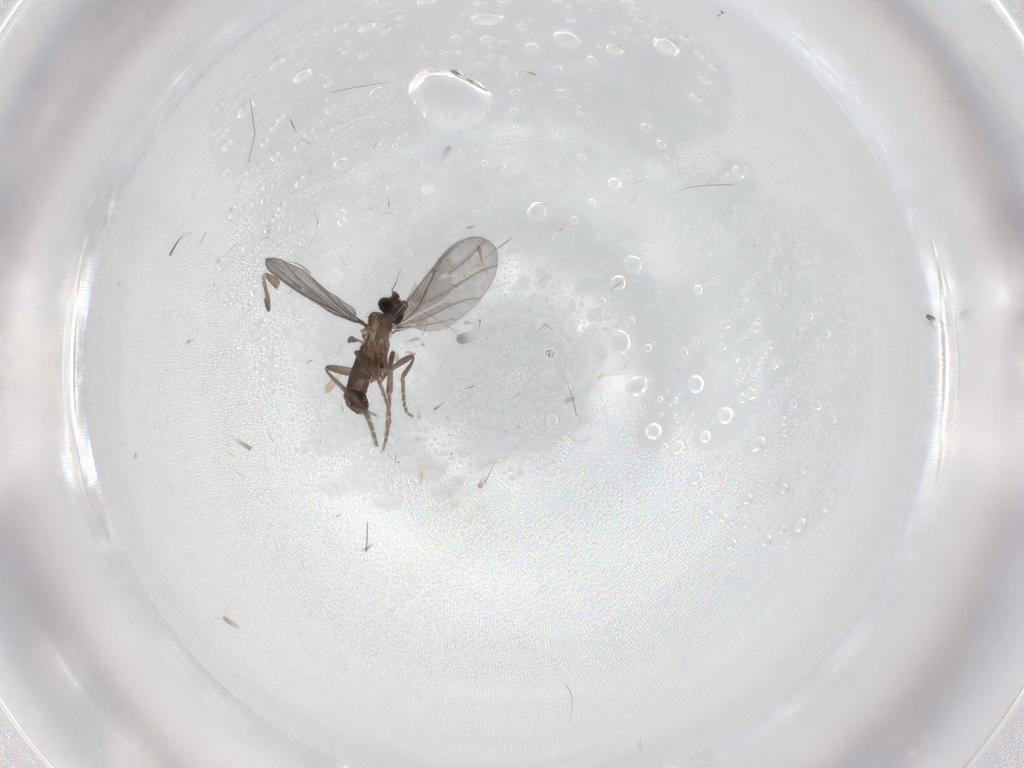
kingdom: Animalia
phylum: Arthropoda
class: Insecta
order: Diptera
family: Phoridae
